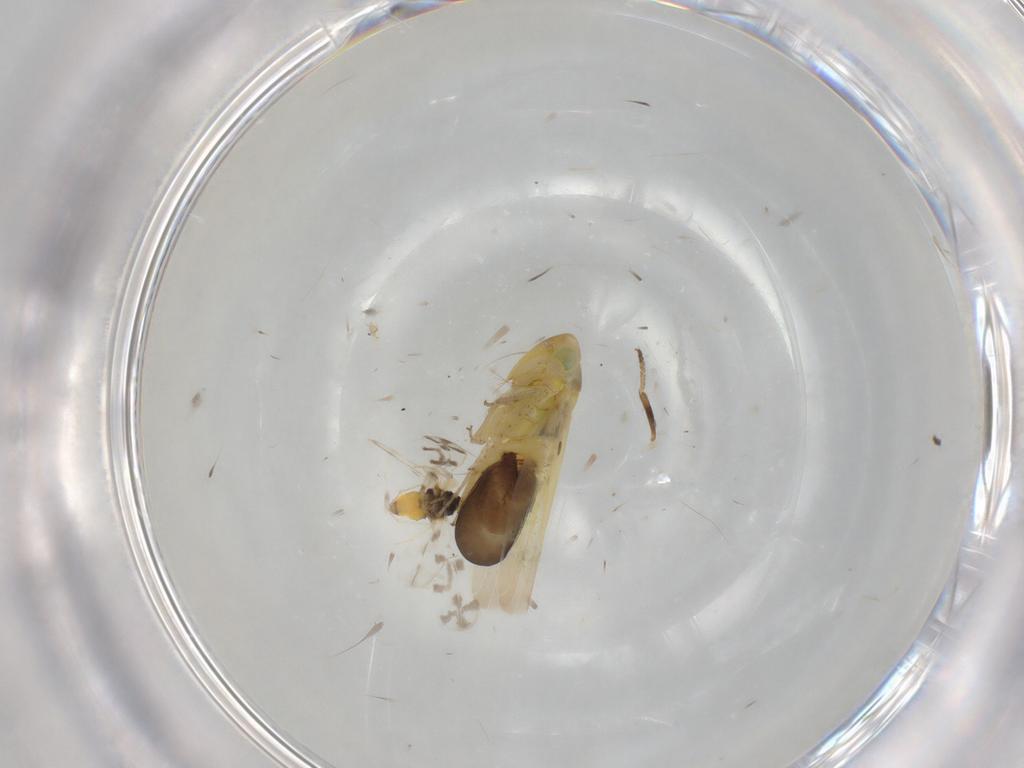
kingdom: Animalia
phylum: Arthropoda
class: Insecta
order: Hemiptera
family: Cicadellidae
